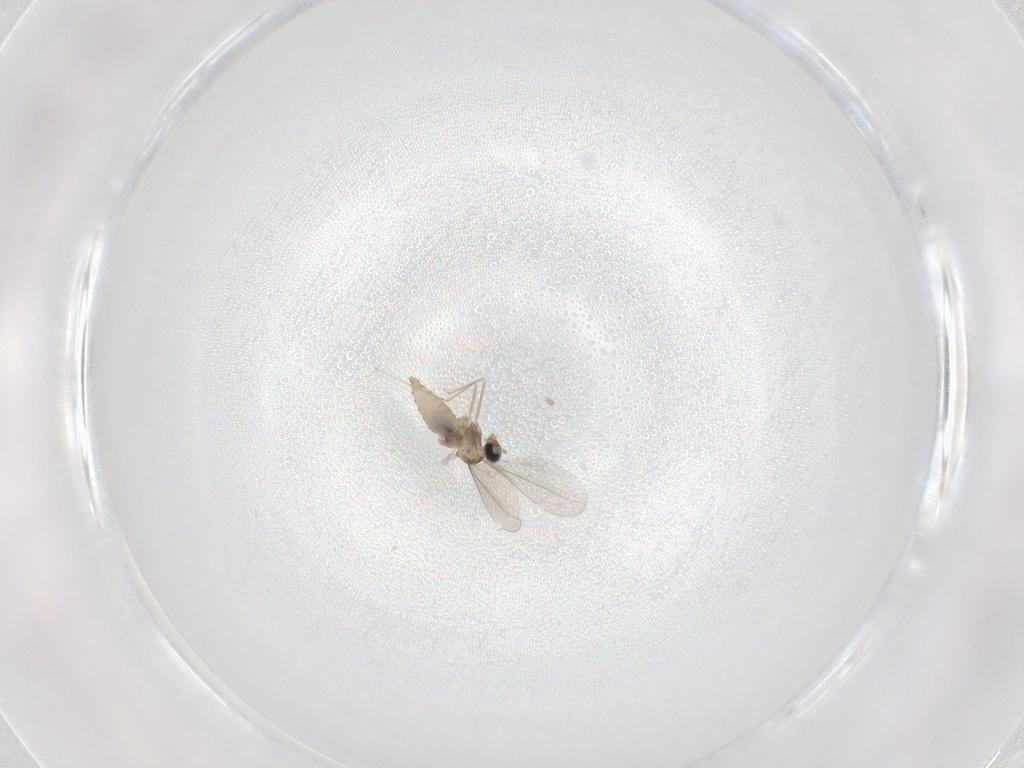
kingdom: Animalia
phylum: Arthropoda
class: Insecta
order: Diptera
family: Cecidomyiidae
